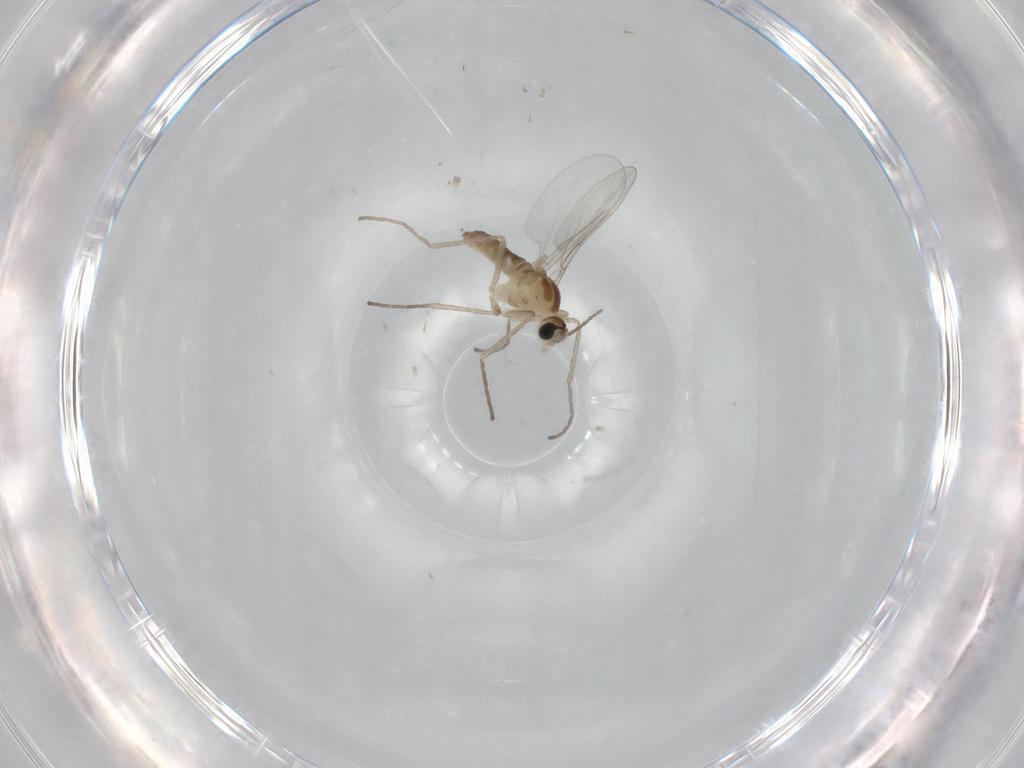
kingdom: Animalia
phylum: Arthropoda
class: Insecta
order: Diptera
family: Cecidomyiidae
